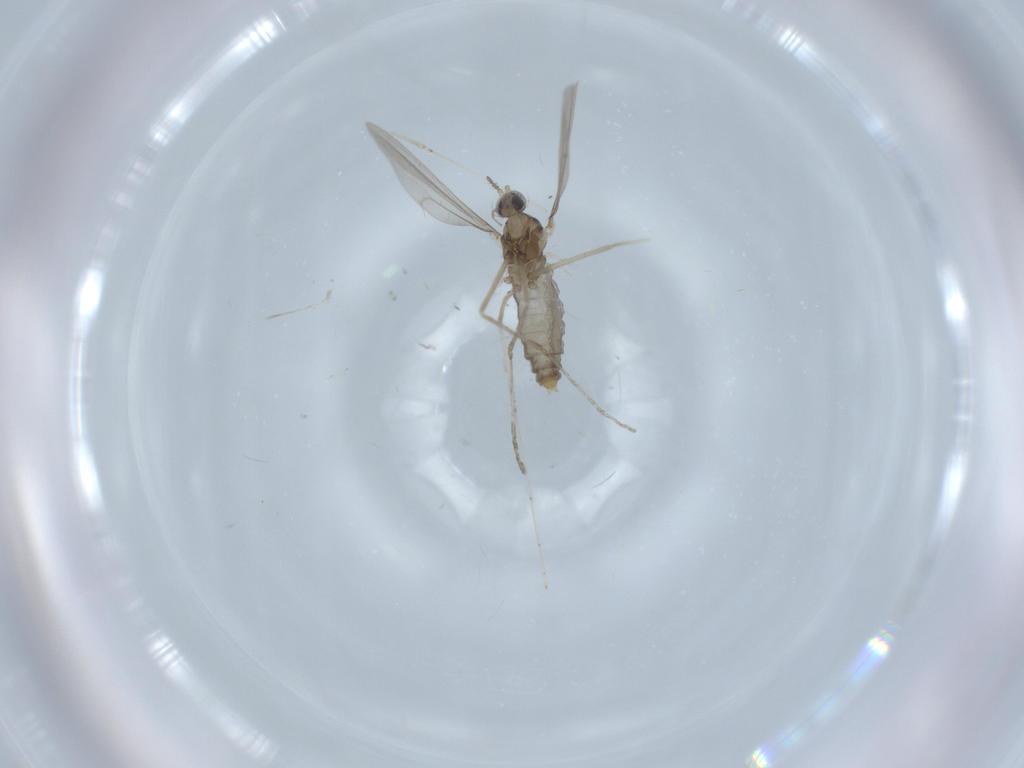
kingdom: Animalia
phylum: Arthropoda
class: Insecta
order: Diptera
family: Cecidomyiidae
